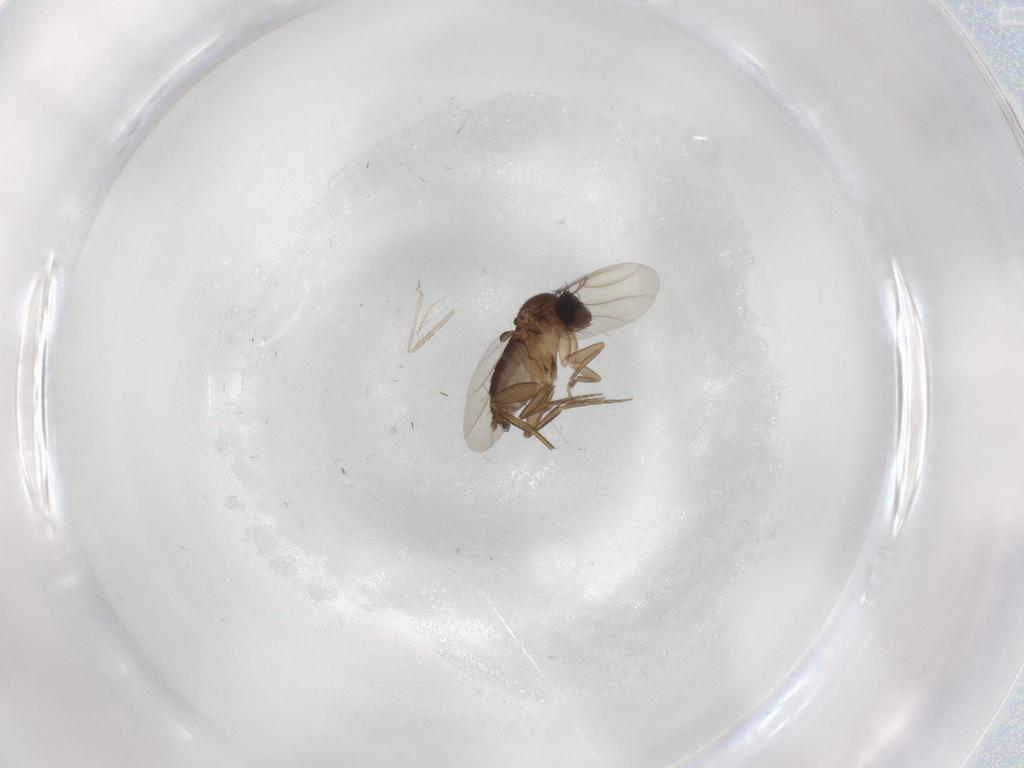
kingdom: Animalia
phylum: Arthropoda
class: Insecta
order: Diptera
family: Cecidomyiidae
